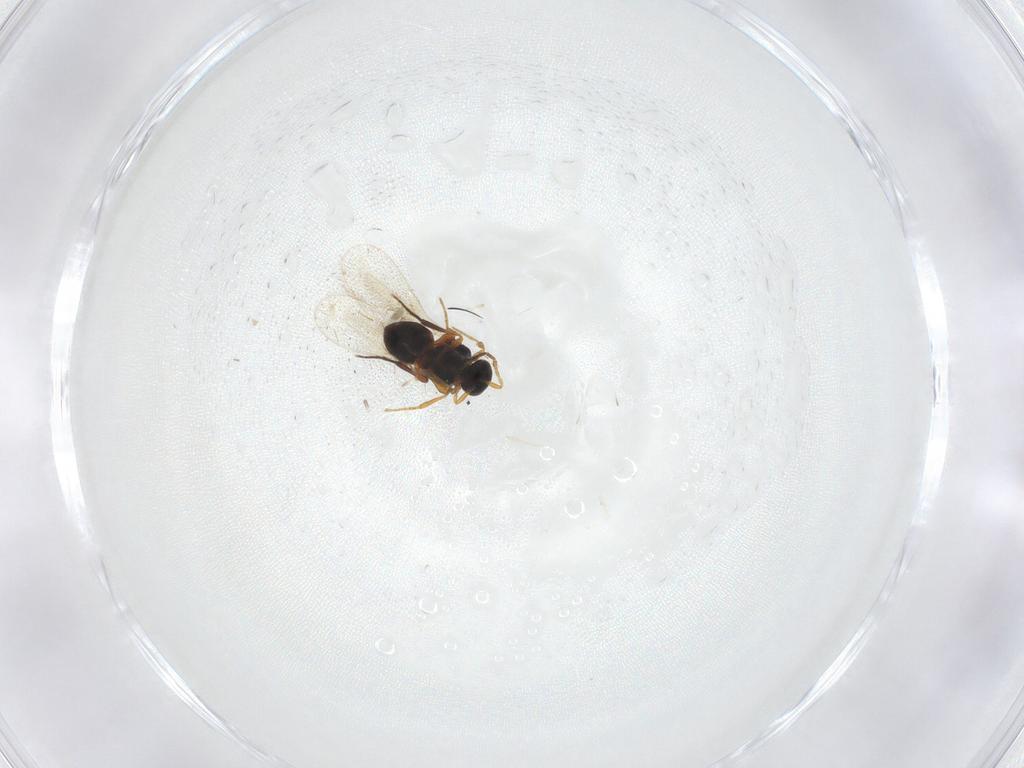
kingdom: Animalia
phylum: Arthropoda
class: Insecta
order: Hymenoptera
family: Platygastridae
